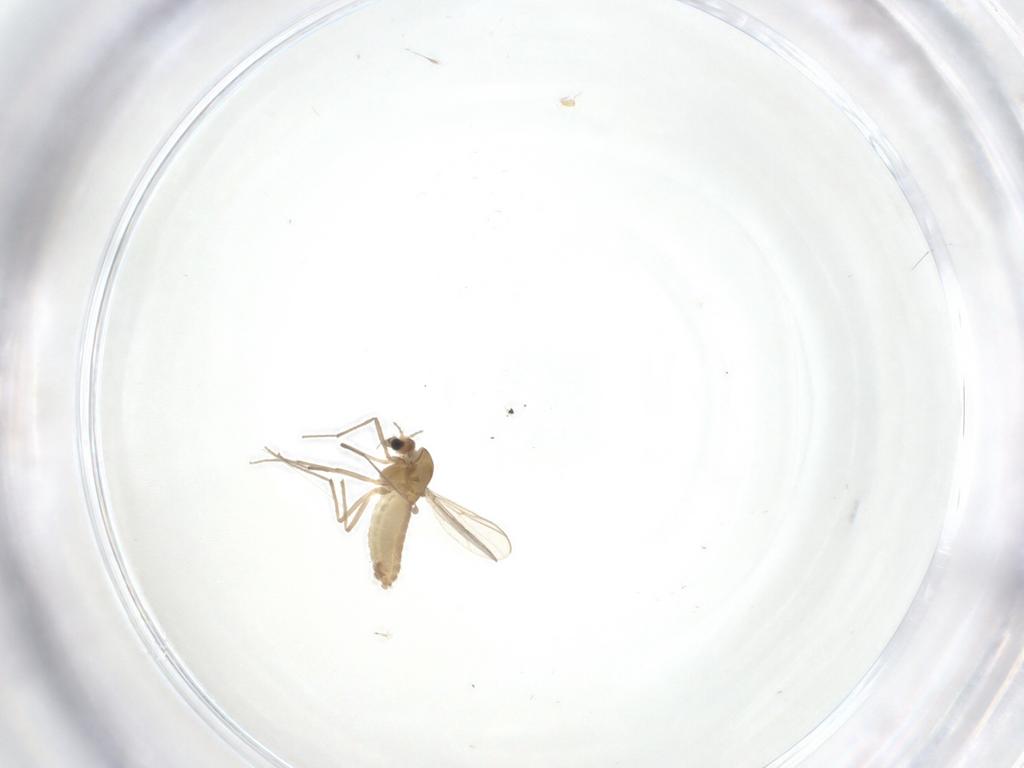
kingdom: Animalia
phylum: Arthropoda
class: Insecta
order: Diptera
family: Chironomidae
